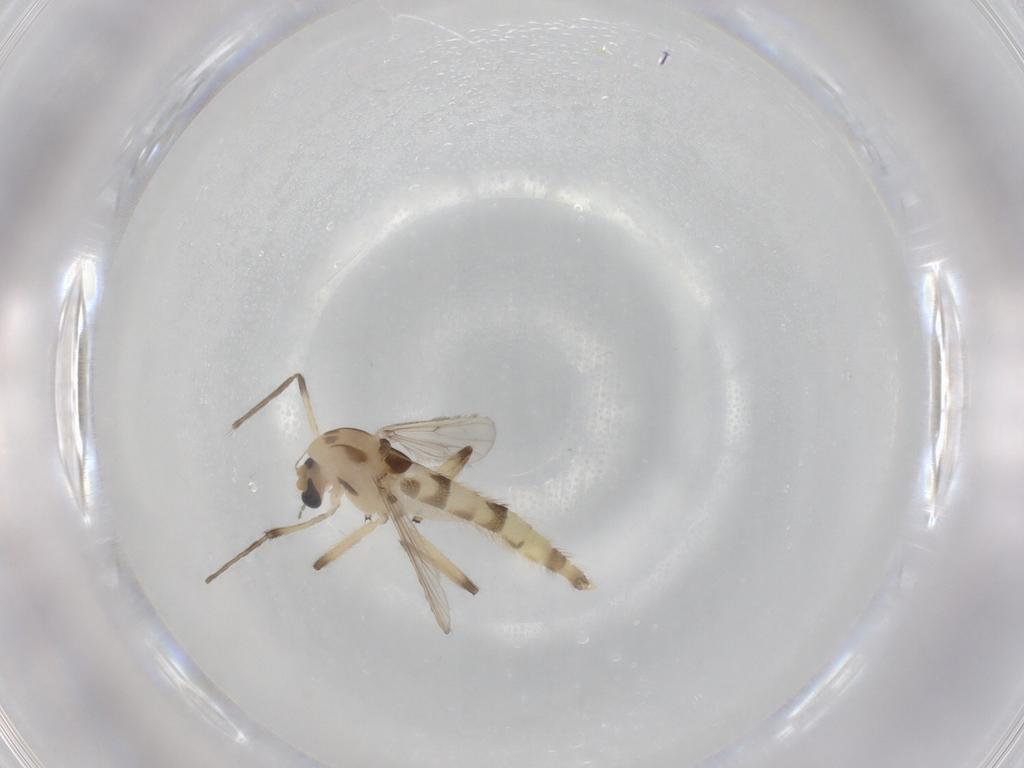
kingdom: Animalia
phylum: Arthropoda
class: Insecta
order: Diptera
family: Chironomidae
